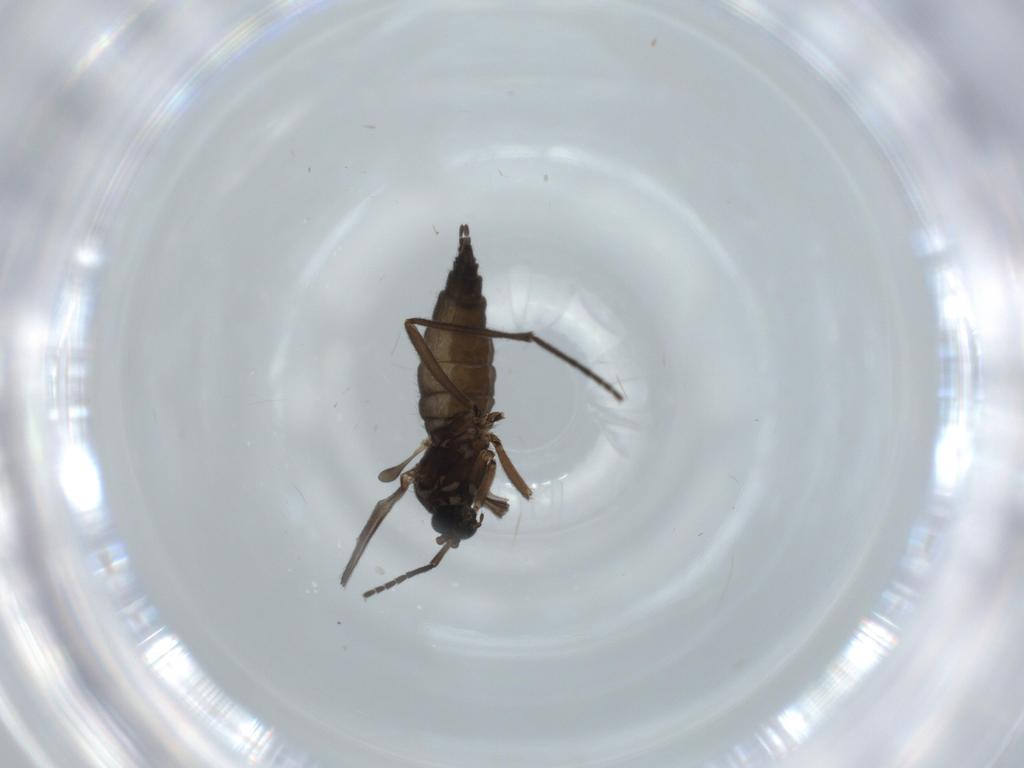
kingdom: Animalia
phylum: Arthropoda
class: Insecta
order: Diptera
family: Sciaridae
